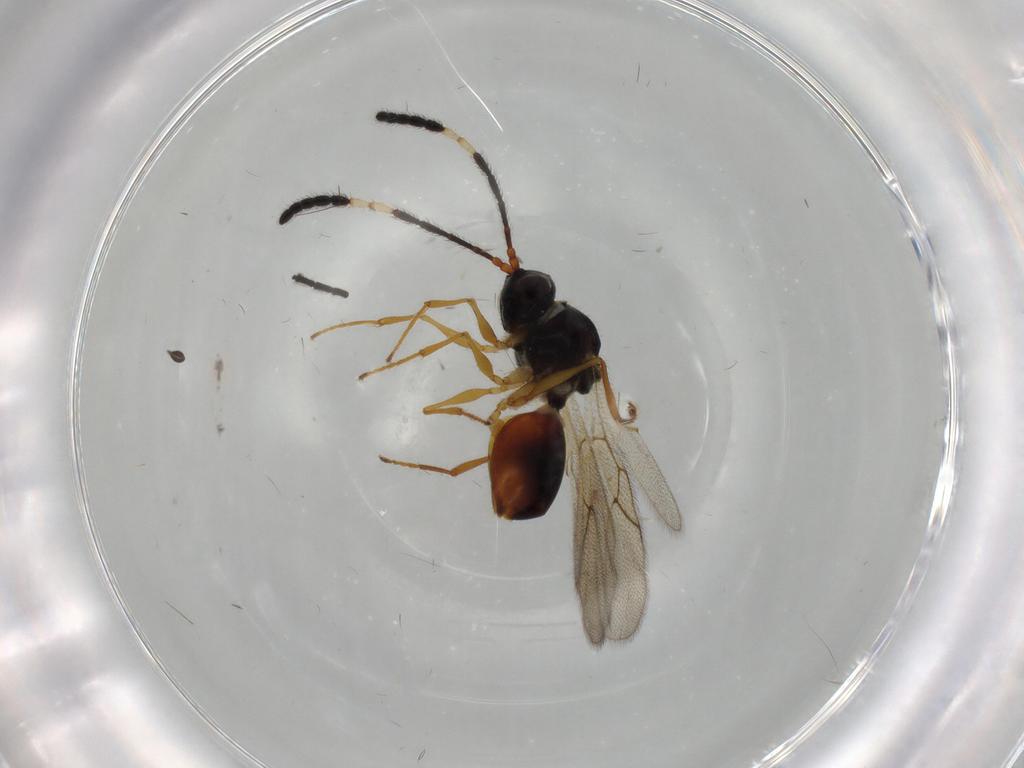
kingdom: Animalia
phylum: Arthropoda
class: Insecta
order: Hymenoptera
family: Figitidae
